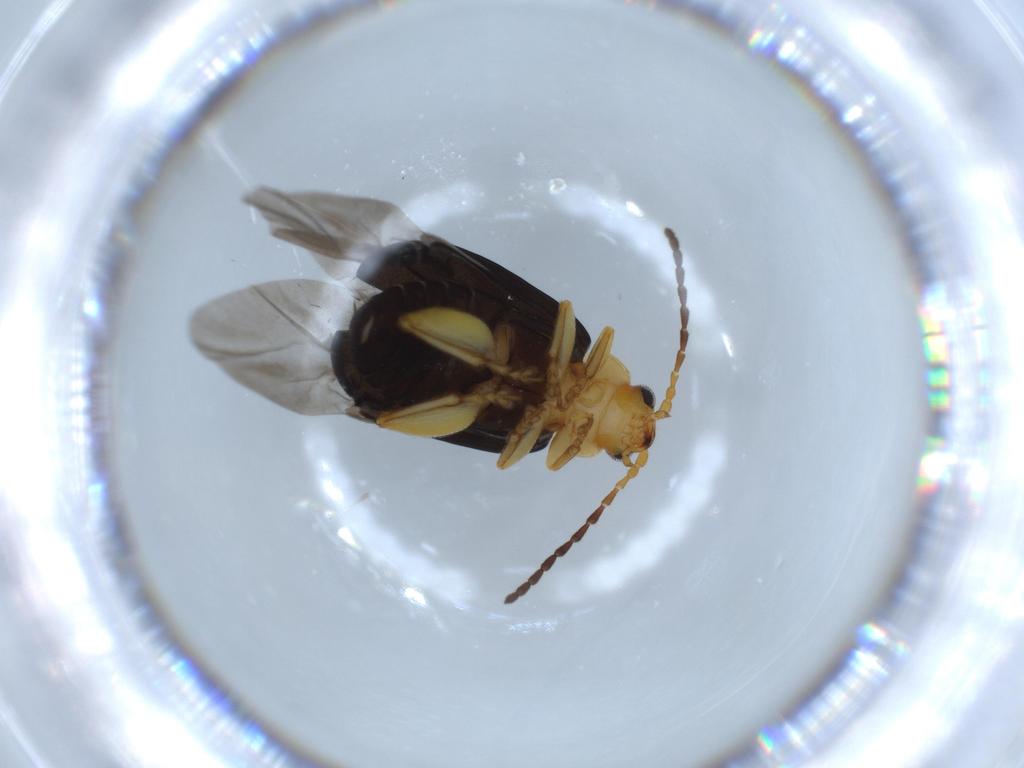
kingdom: Animalia
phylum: Arthropoda
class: Insecta
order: Coleoptera
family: Chrysomelidae
